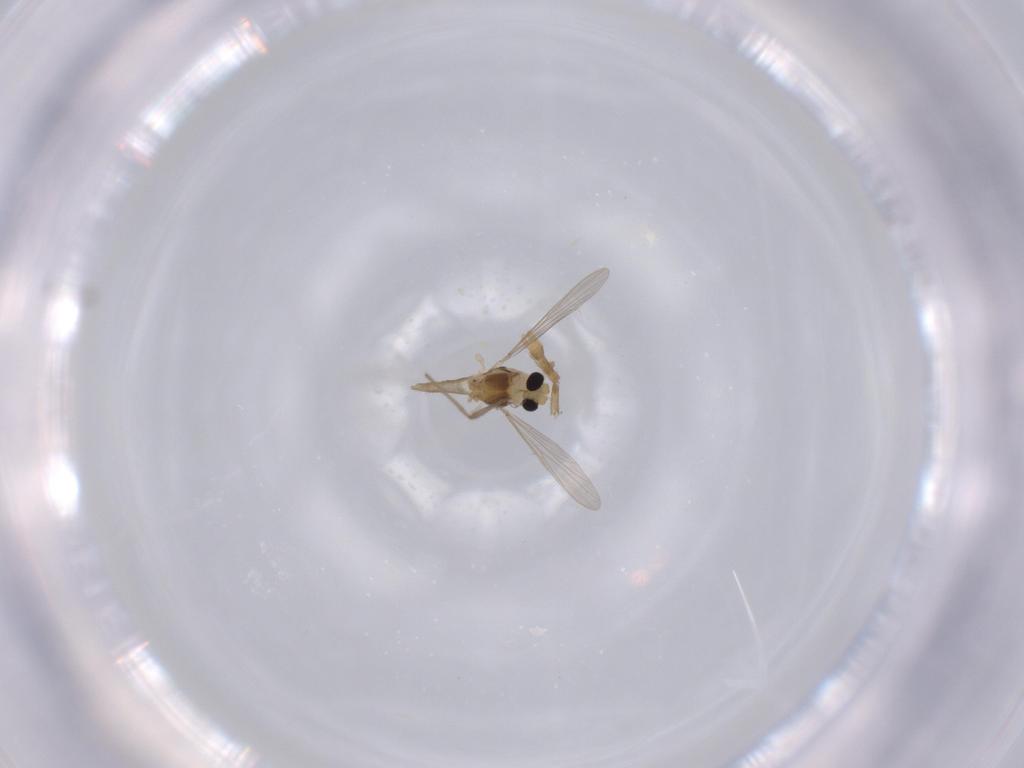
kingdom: Animalia
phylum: Arthropoda
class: Insecta
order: Diptera
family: Chironomidae
